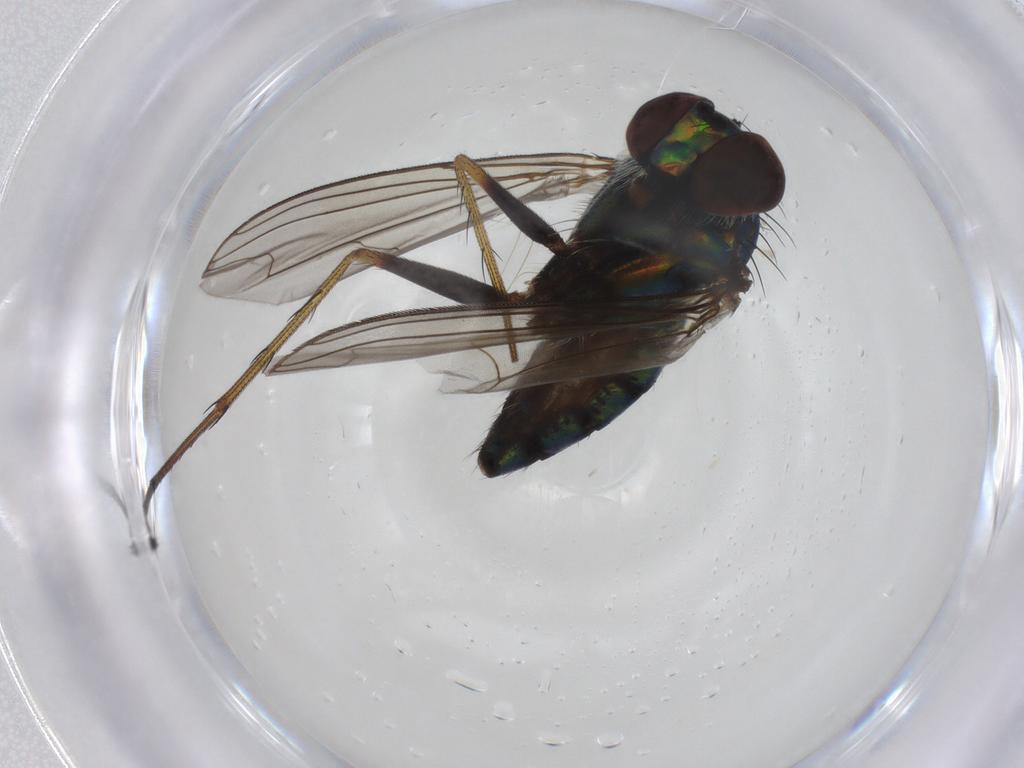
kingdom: Animalia
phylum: Arthropoda
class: Insecta
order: Diptera
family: Dolichopodidae
